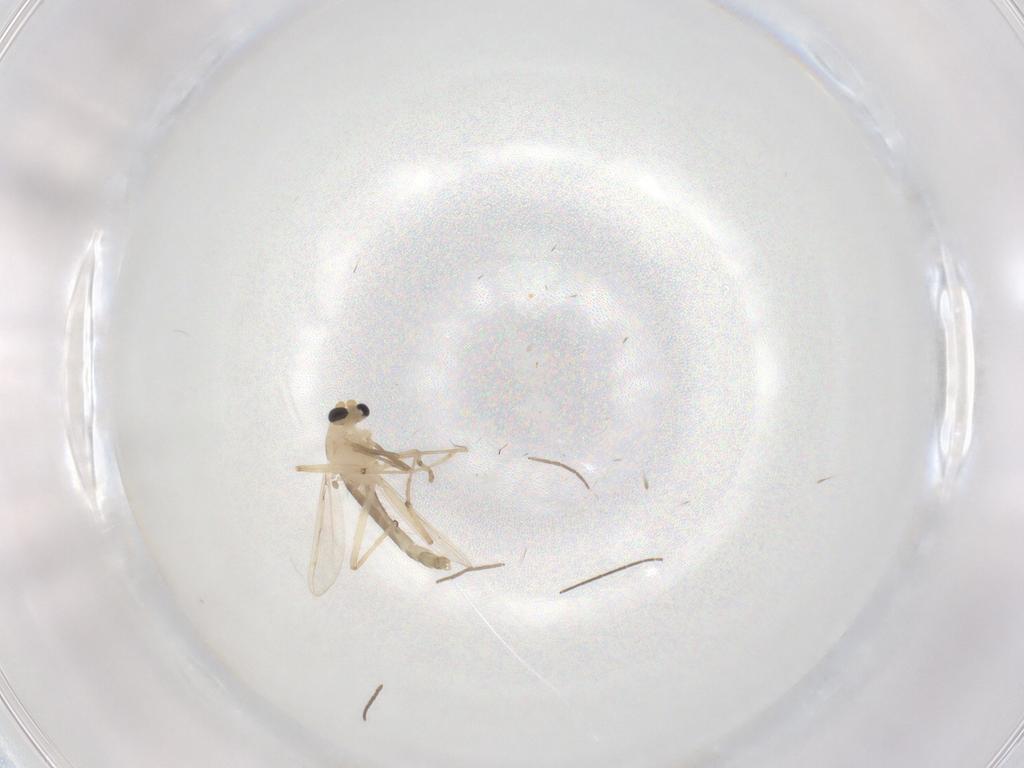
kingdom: Animalia
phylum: Arthropoda
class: Insecta
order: Diptera
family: Chironomidae
